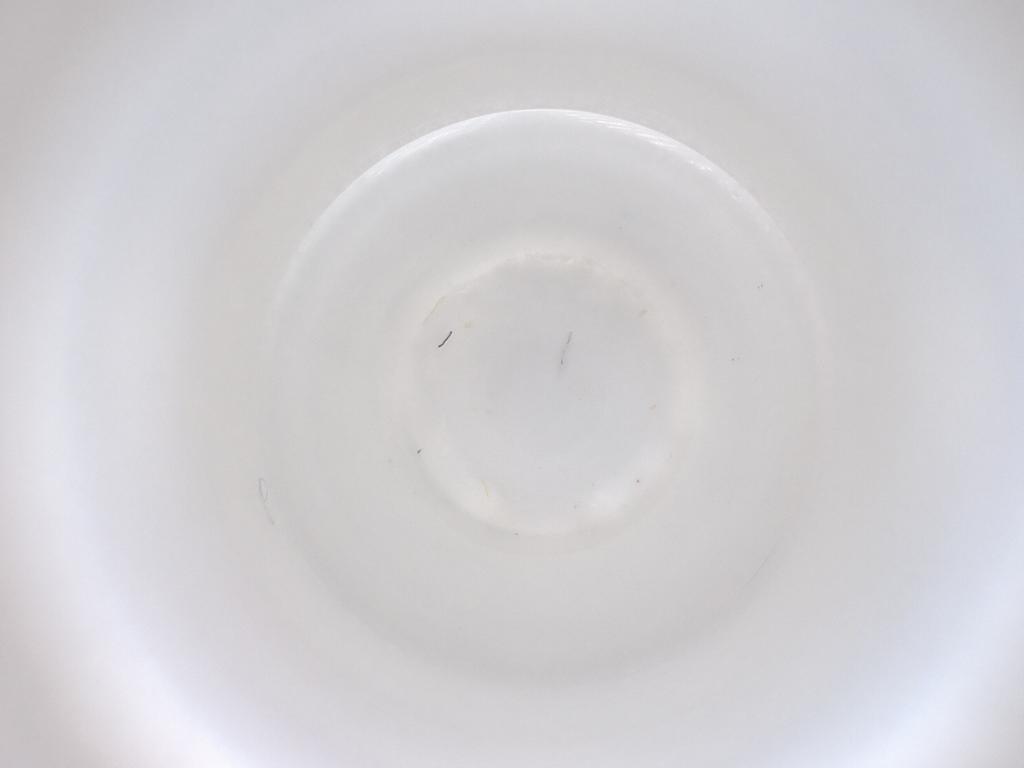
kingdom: Animalia
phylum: Arthropoda
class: Insecta
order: Diptera
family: Cecidomyiidae
